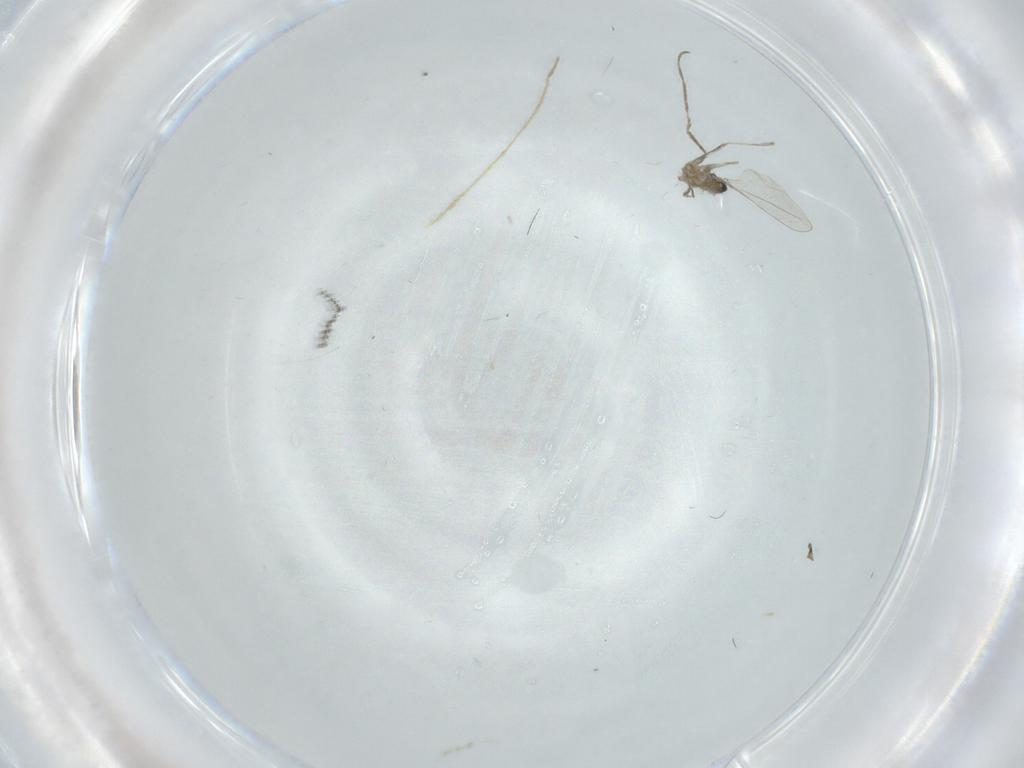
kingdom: Animalia
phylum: Arthropoda
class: Insecta
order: Diptera
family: Cecidomyiidae
